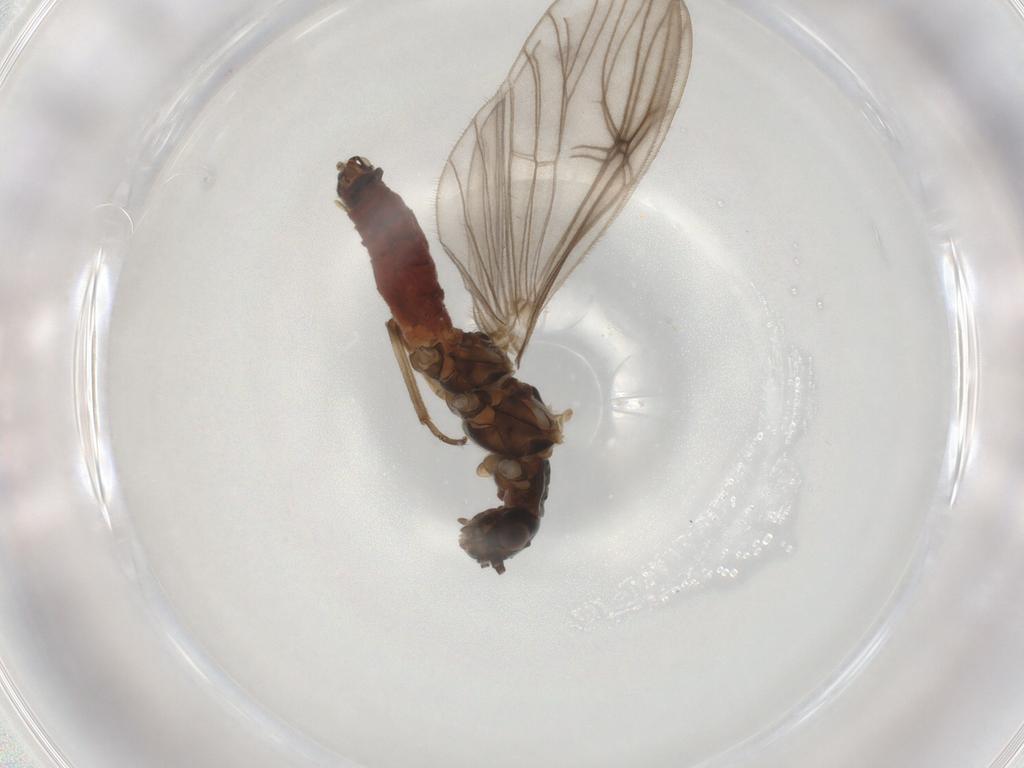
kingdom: Animalia
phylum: Arthropoda
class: Insecta
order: Plecoptera
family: Nemouridae
